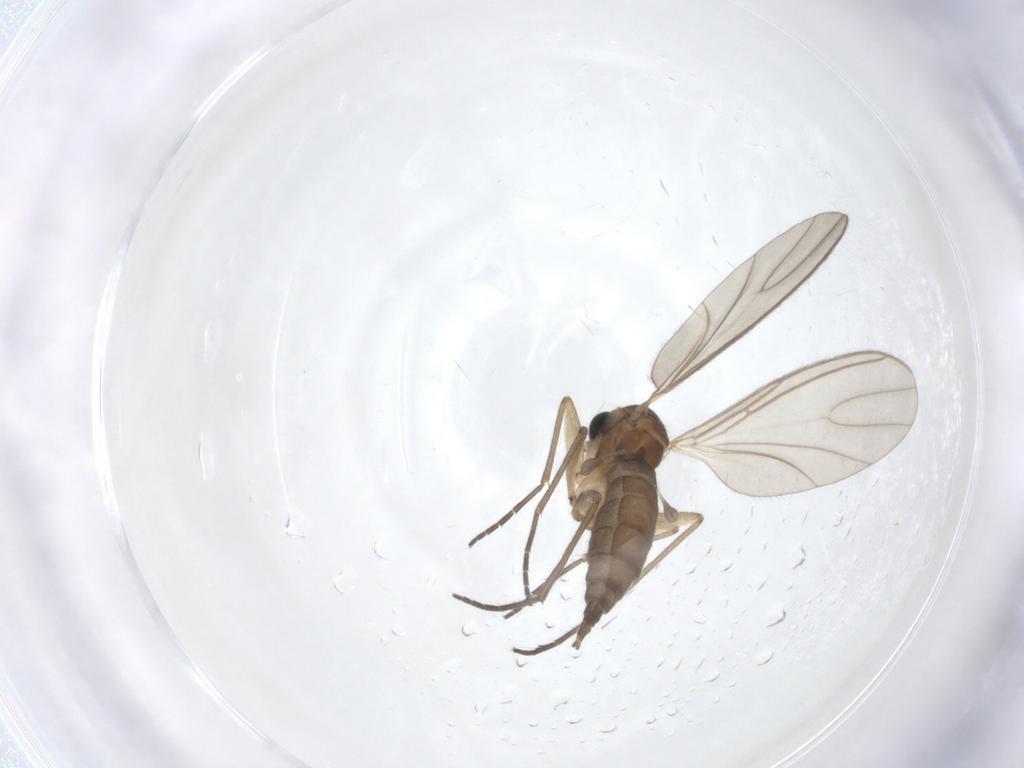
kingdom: Animalia
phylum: Arthropoda
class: Insecta
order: Diptera
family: Sciaridae
